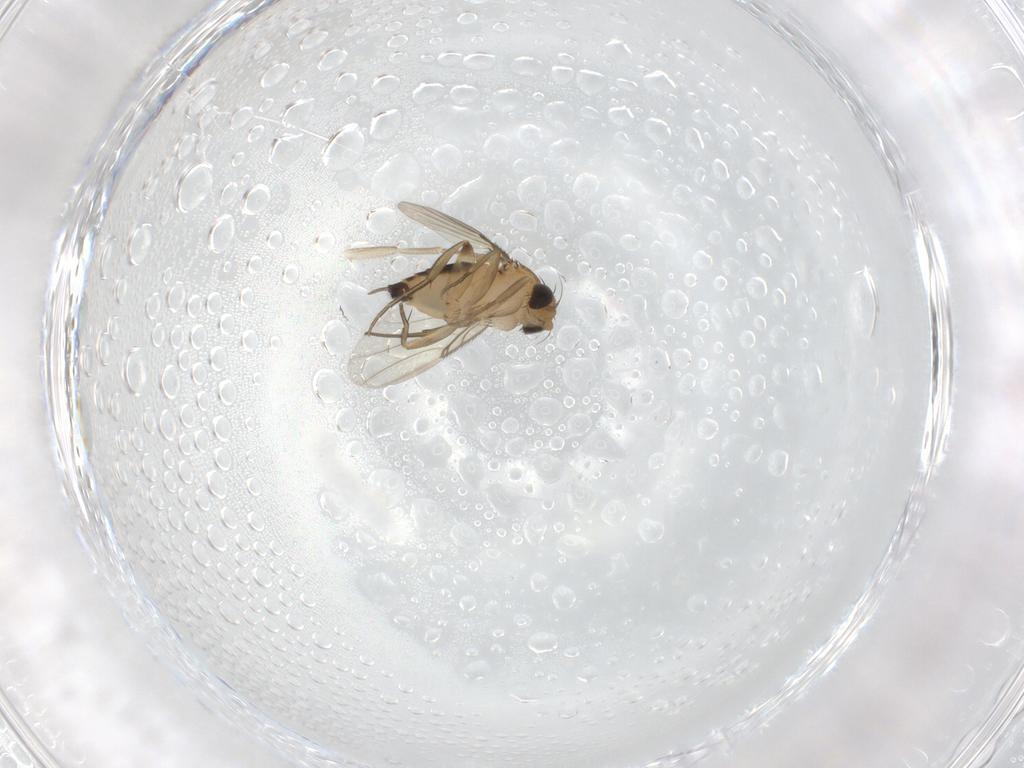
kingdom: Animalia
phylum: Arthropoda
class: Insecta
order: Diptera
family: Phoridae
